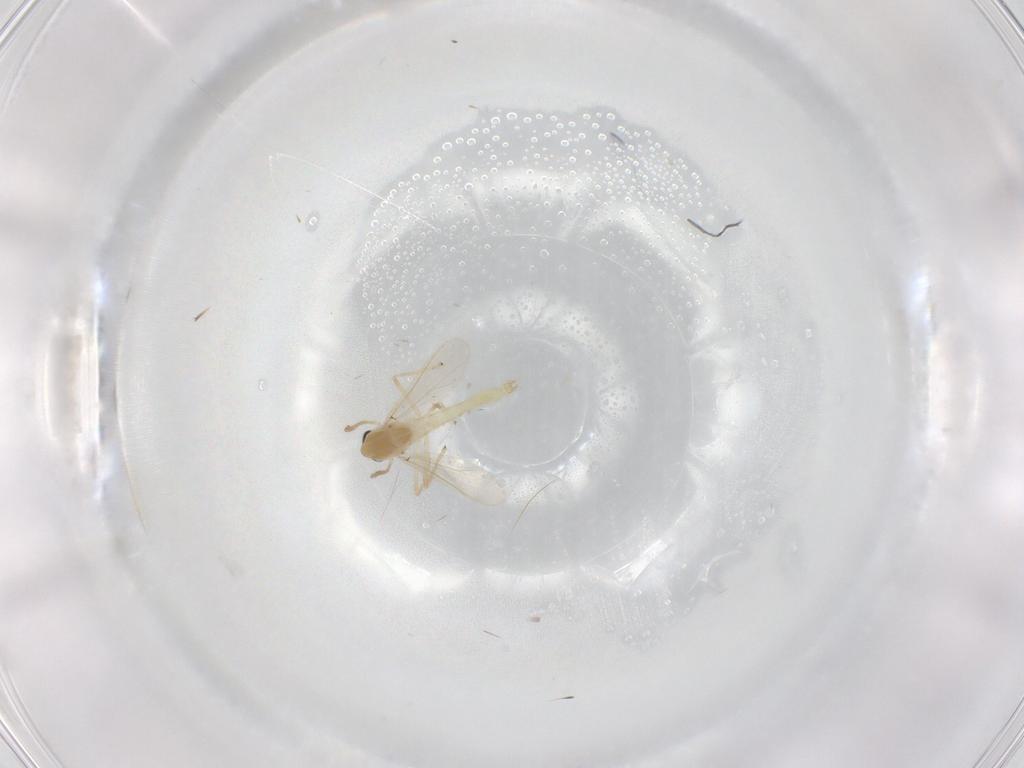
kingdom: Animalia
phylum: Arthropoda
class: Insecta
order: Diptera
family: Chironomidae
